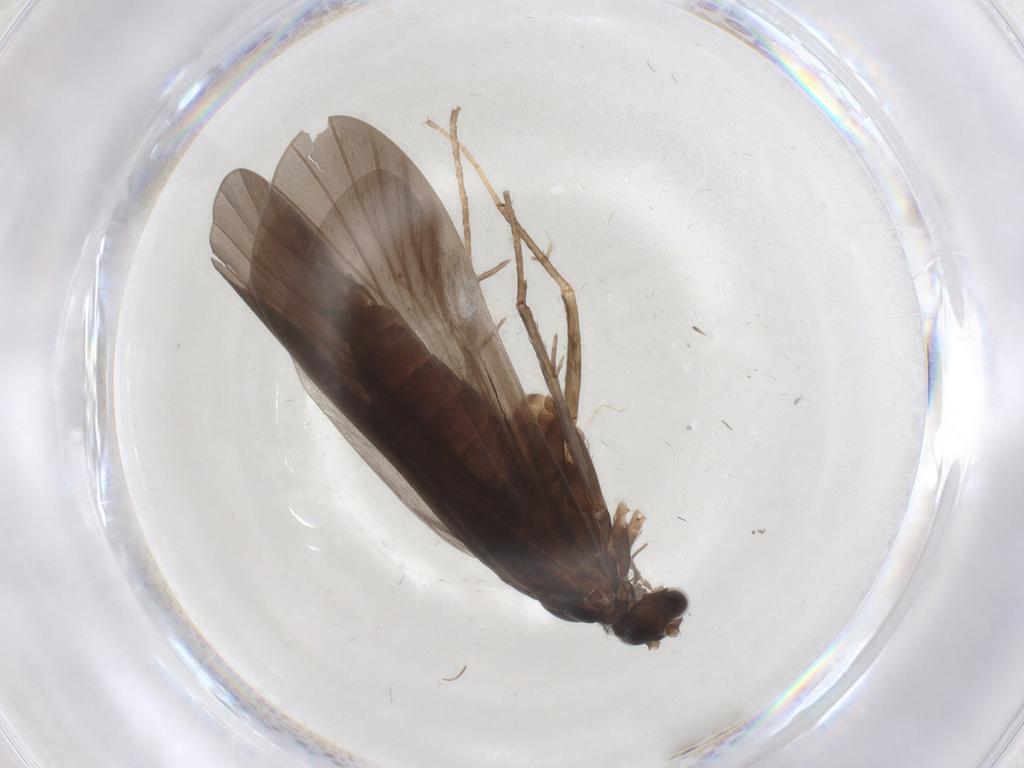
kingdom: Animalia
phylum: Arthropoda
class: Insecta
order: Trichoptera
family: Hydropsychidae
